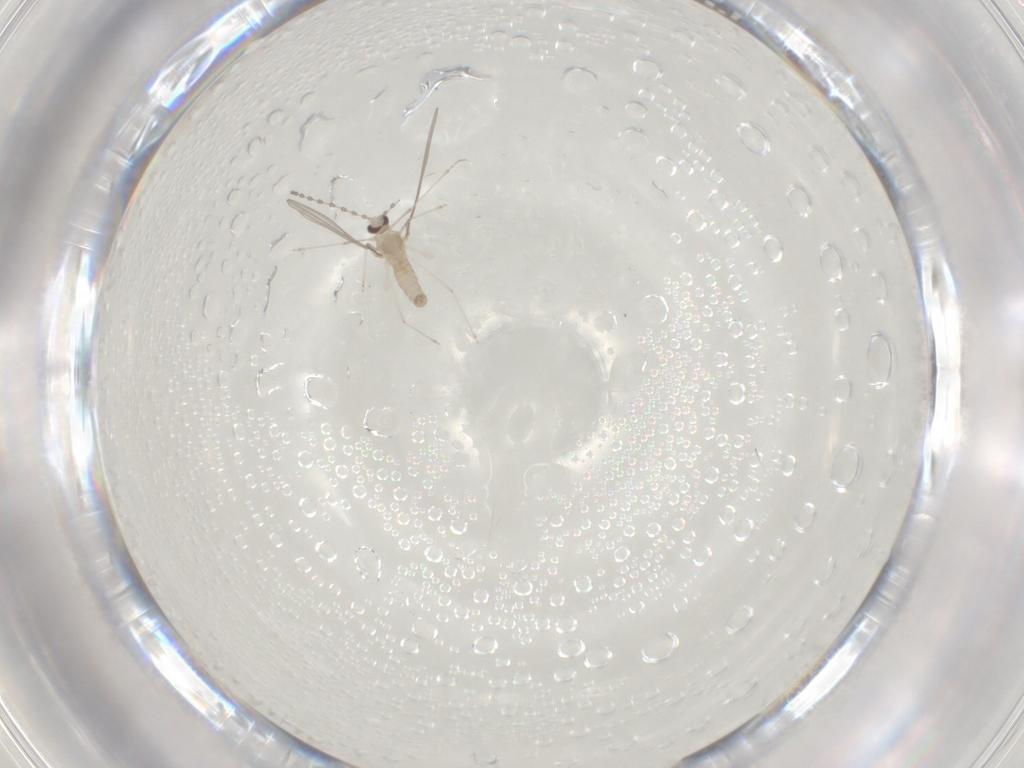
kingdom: Animalia
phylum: Arthropoda
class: Insecta
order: Diptera
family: Cecidomyiidae
